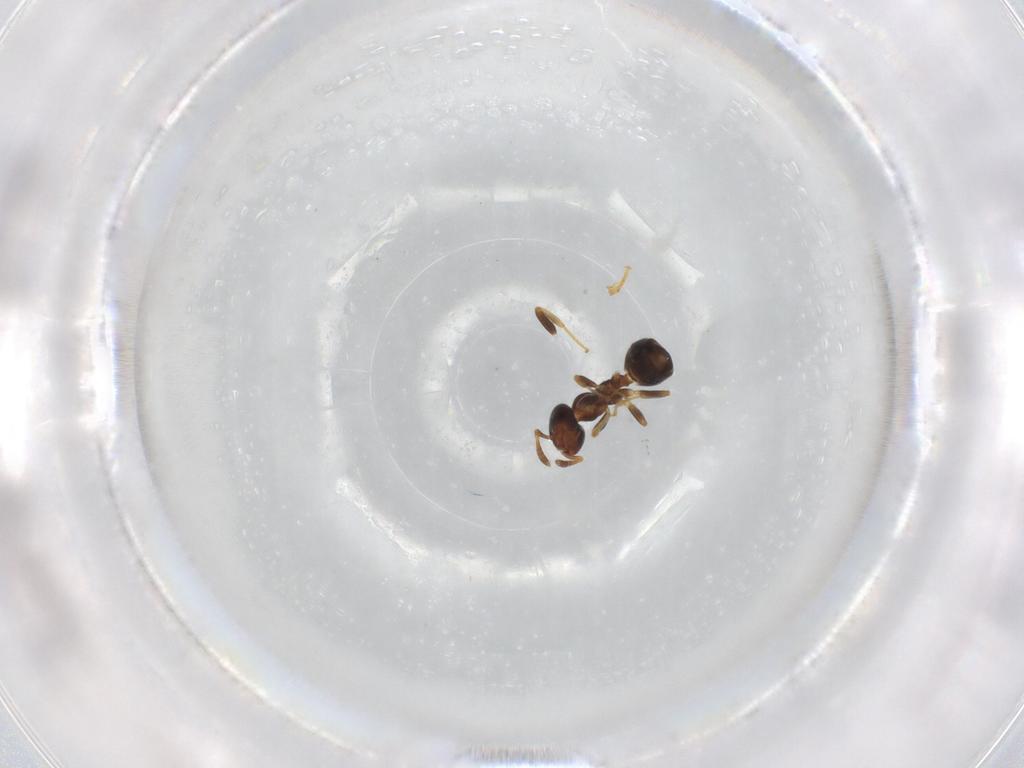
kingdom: Animalia
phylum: Arthropoda
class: Insecta
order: Hymenoptera
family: Formicidae
